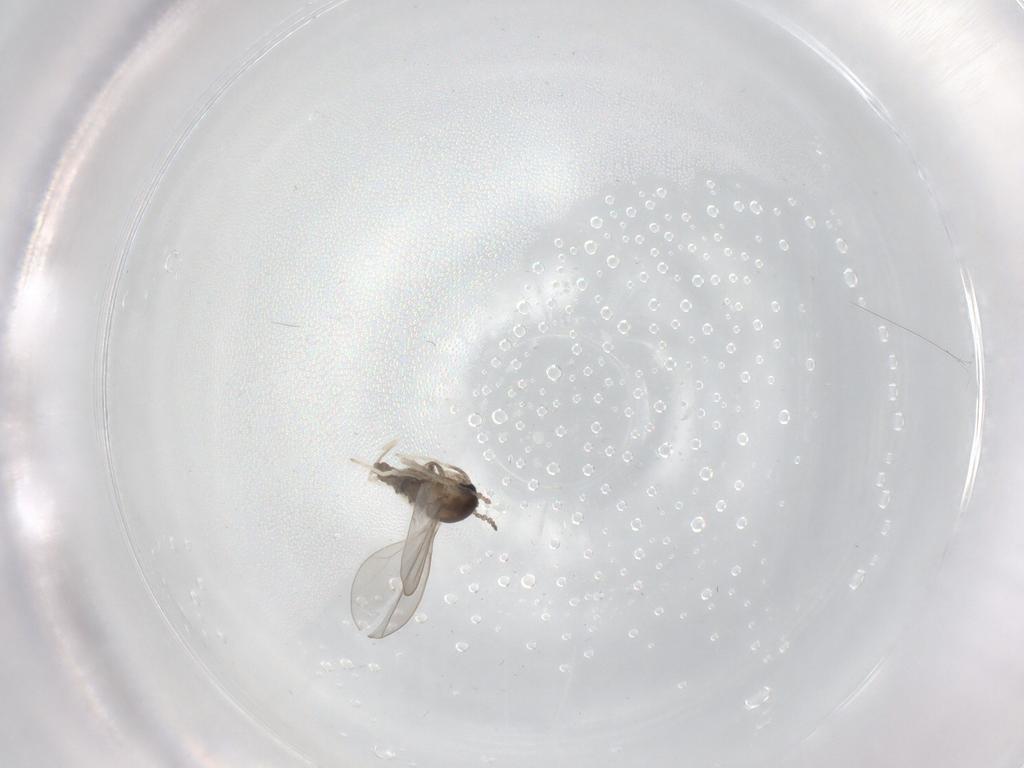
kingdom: Animalia
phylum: Arthropoda
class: Insecta
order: Diptera
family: Cecidomyiidae
